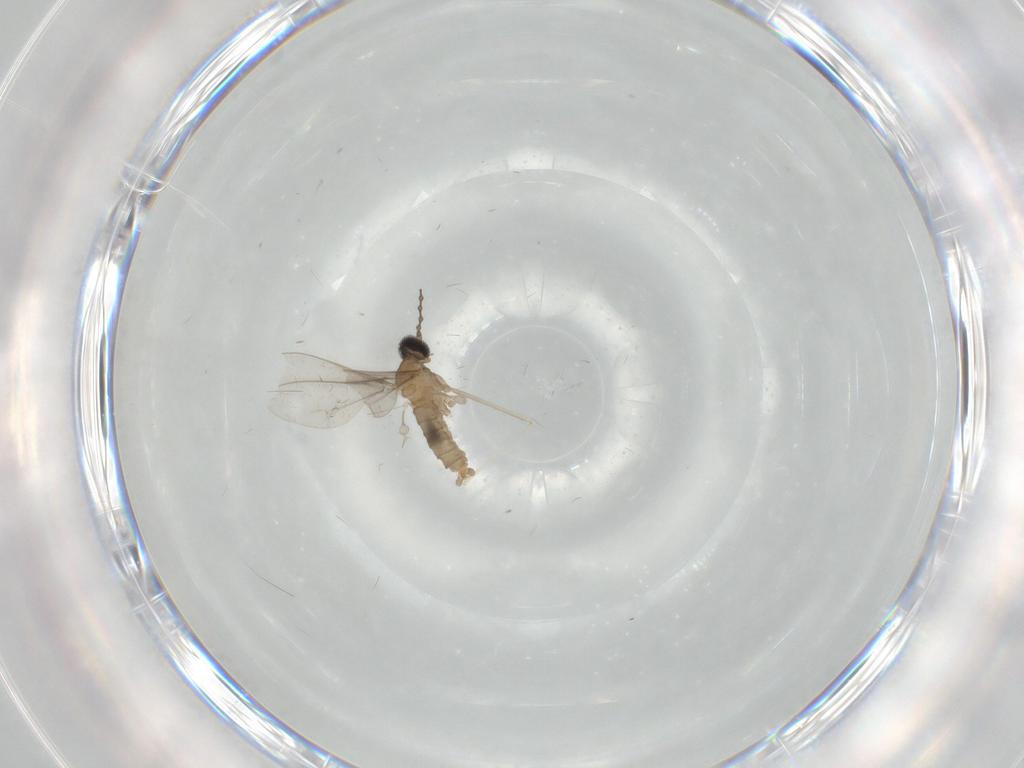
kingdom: Animalia
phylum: Arthropoda
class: Insecta
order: Diptera
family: Cecidomyiidae
